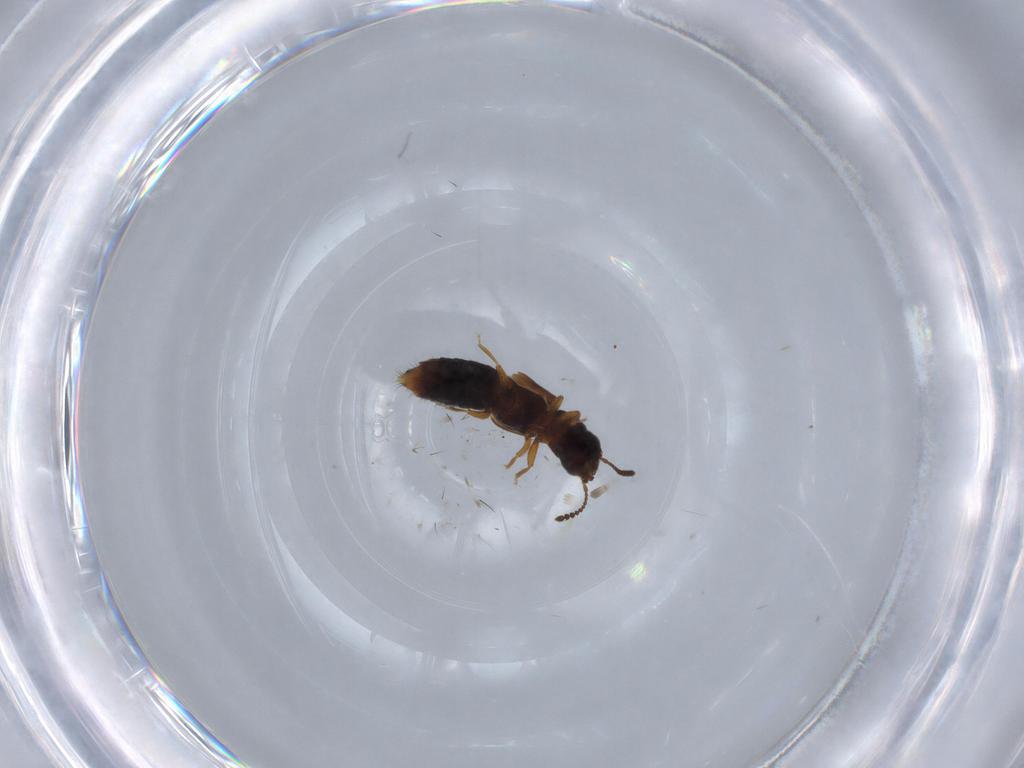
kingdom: Animalia
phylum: Arthropoda
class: Insecta
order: Coleoptera
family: Staphylinidae
